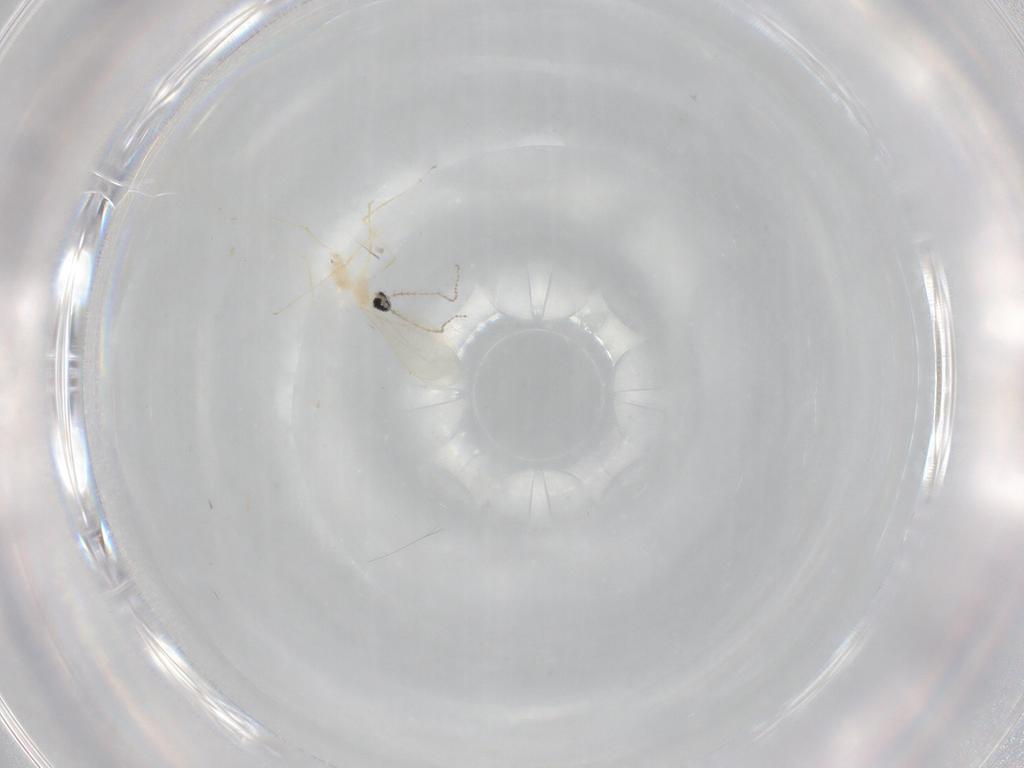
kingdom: Animalia
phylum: Arthropoda
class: Insecta
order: Diptera
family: Cecidomyiidae
